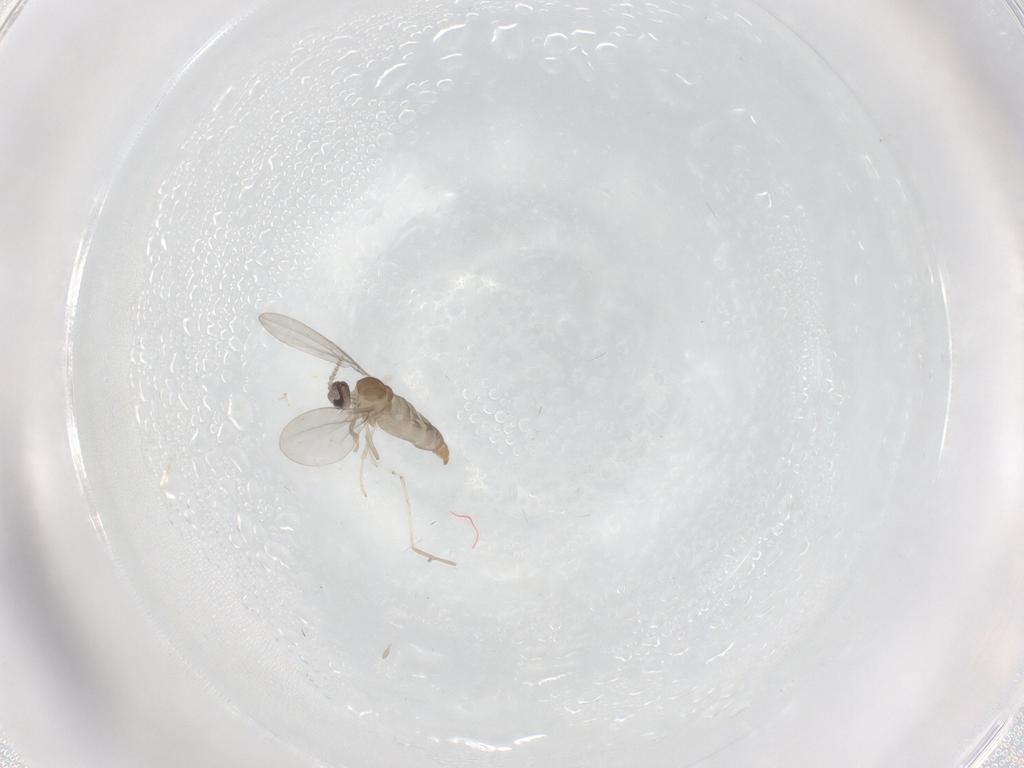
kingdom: Animalia
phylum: Arthropoda
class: Insecta
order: Diptera
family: Cecidomyiidae
